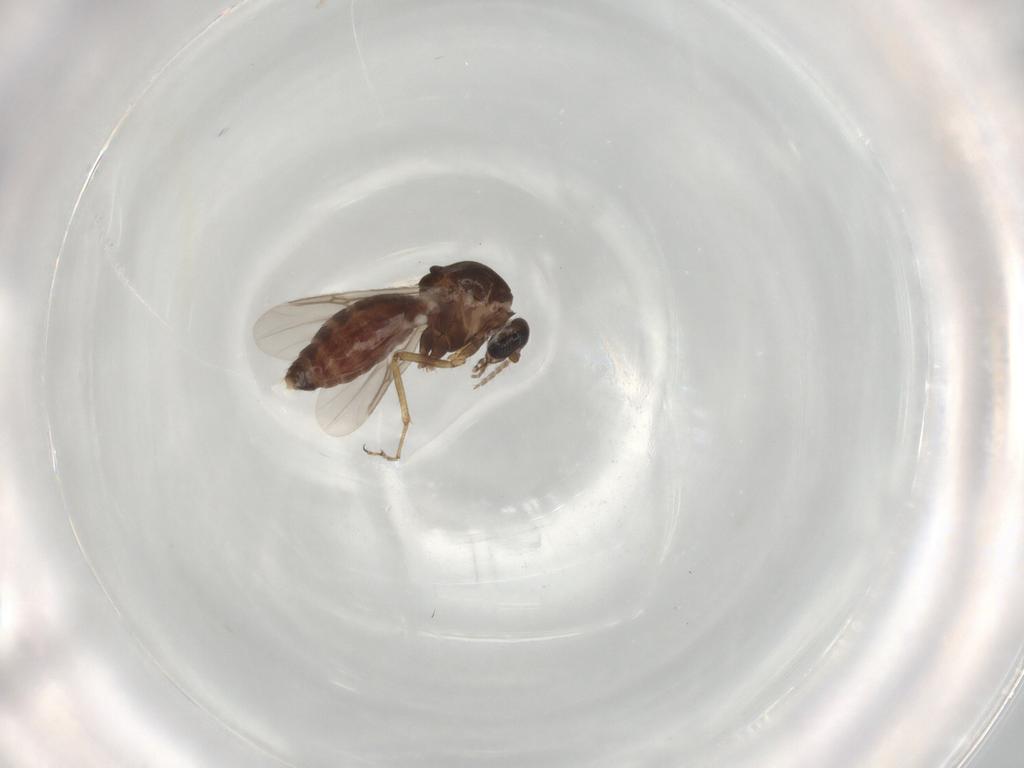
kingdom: Animalia
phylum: Arthropoda
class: Insecta
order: Diptera
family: Ceratopogonidae
